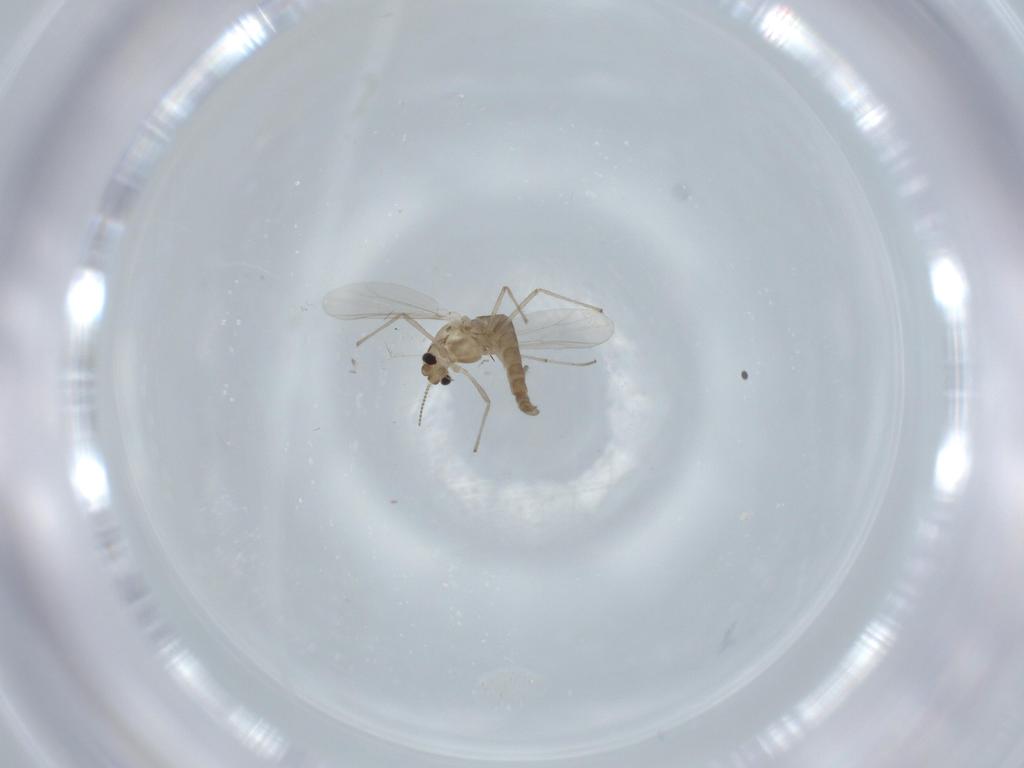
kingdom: Animalia
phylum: Arthropoda
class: Insecta
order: Diptera
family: Chironomidae
